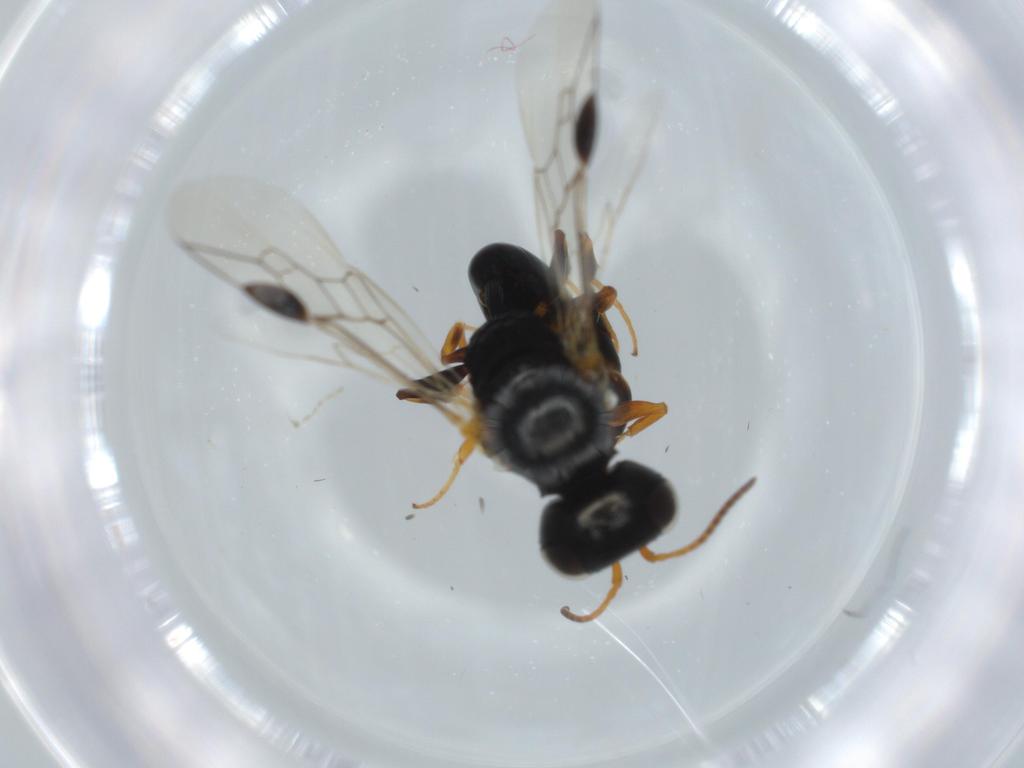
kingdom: Animalia
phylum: Arthropoda
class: Insecta
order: Hymenoptera
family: Crabronidae
